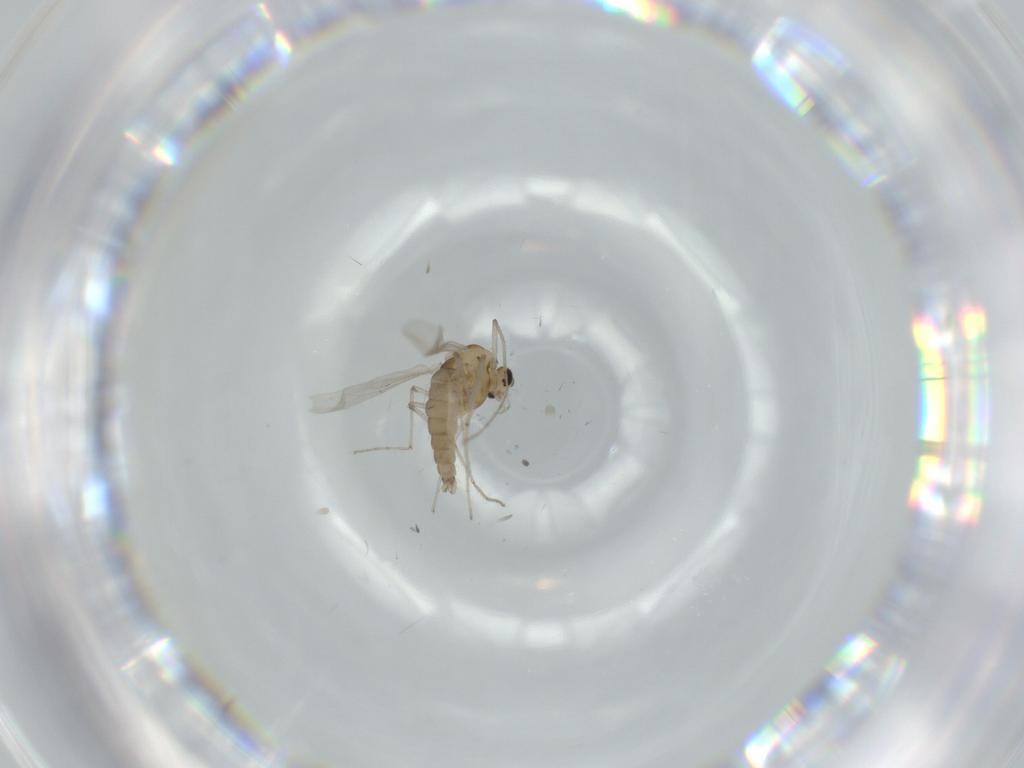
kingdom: Animalia
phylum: Arthropoda
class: Insecta
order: Diptera
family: Chironomidae
